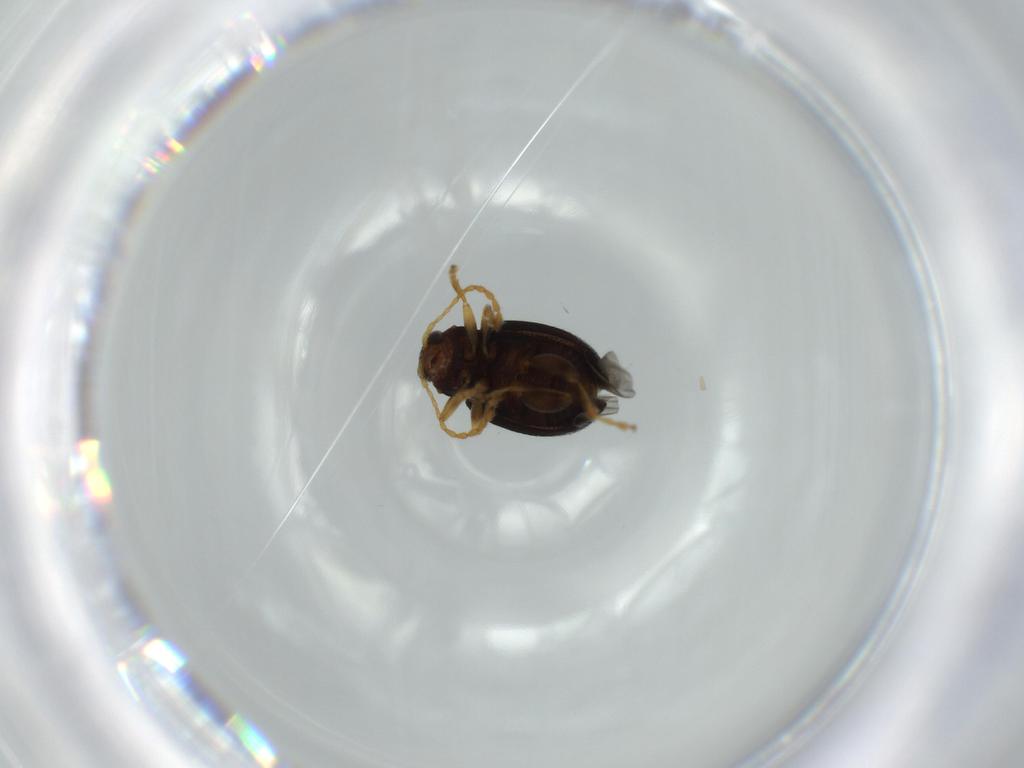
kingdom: Animalia
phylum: Arthropoda
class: Insecta
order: Coleoptera
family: Chrysomelidae
